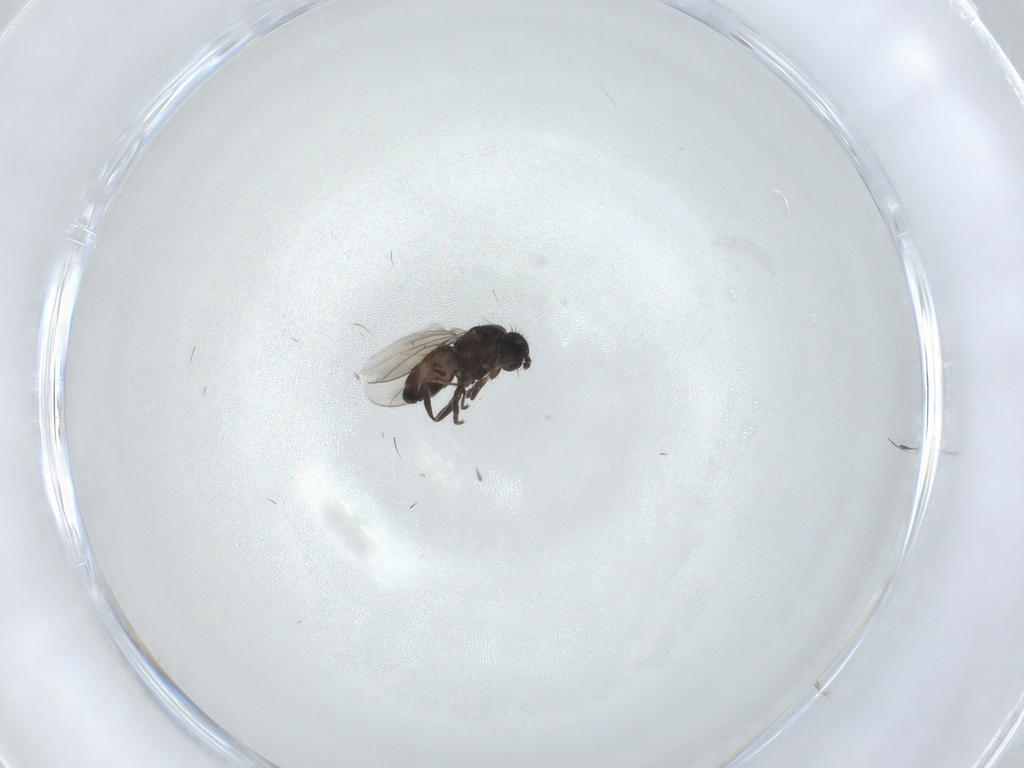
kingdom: Animalia
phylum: Arthropoda
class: Insecta
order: Diptera
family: Sphaeroceridae
